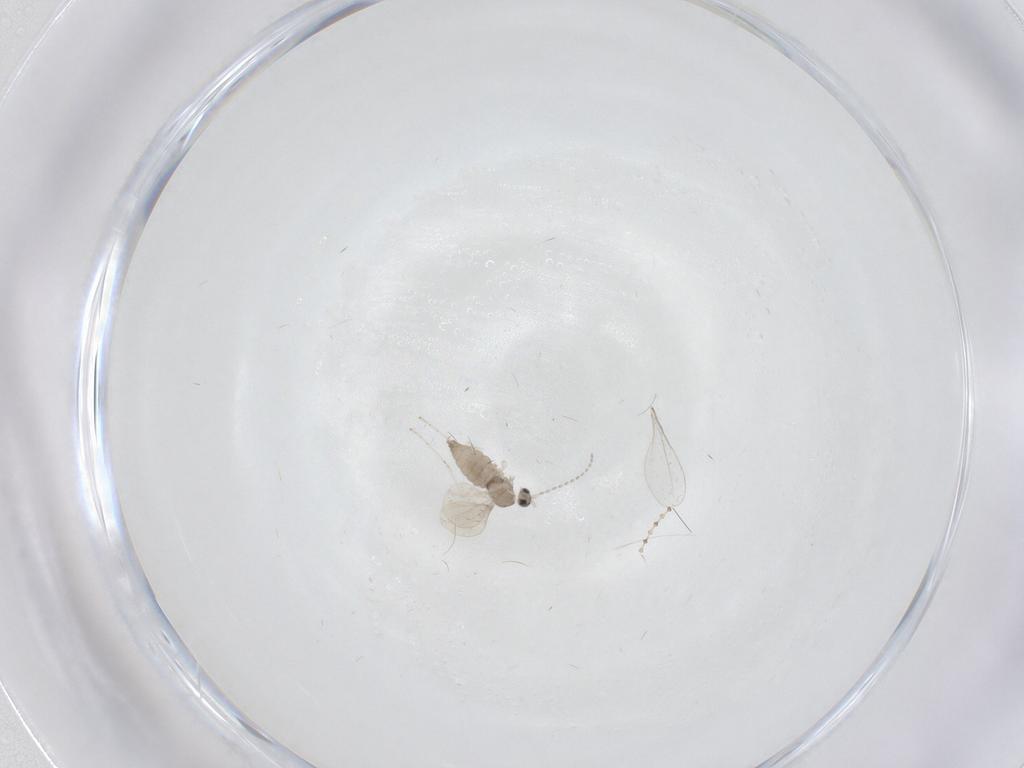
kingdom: Animalia
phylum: Arthropoda
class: Insecta
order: Diptera
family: Cecidomyiidae
